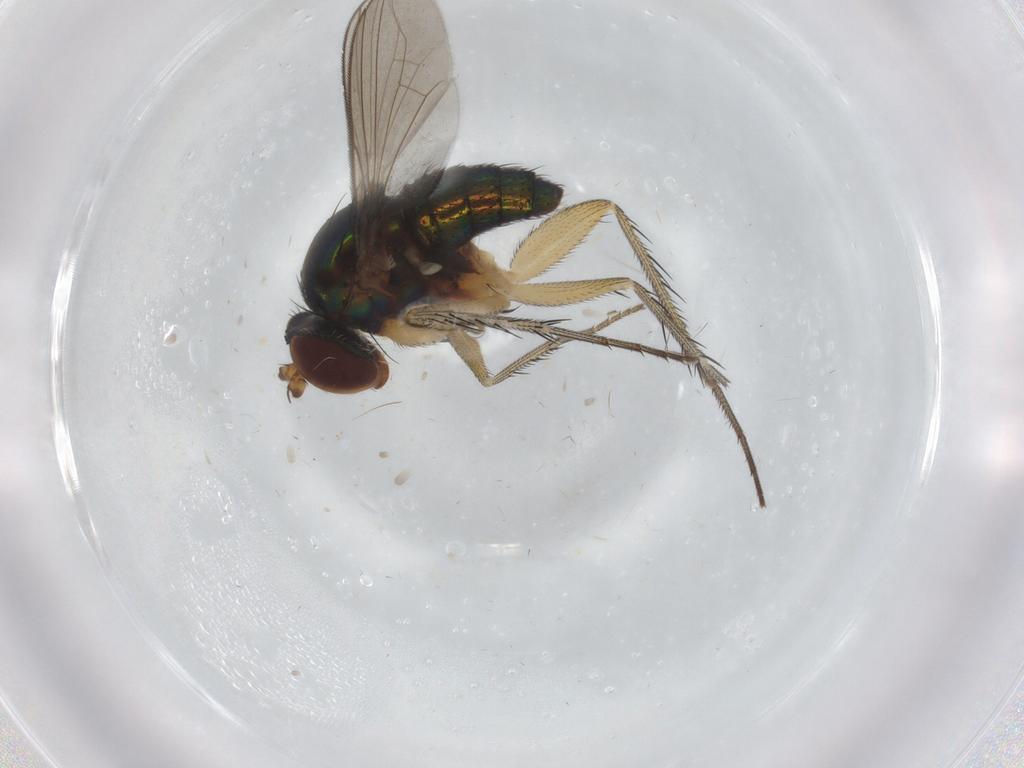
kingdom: Animalia
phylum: Arthropoda
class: Insecta
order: Diptera
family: Dolichopodidae
